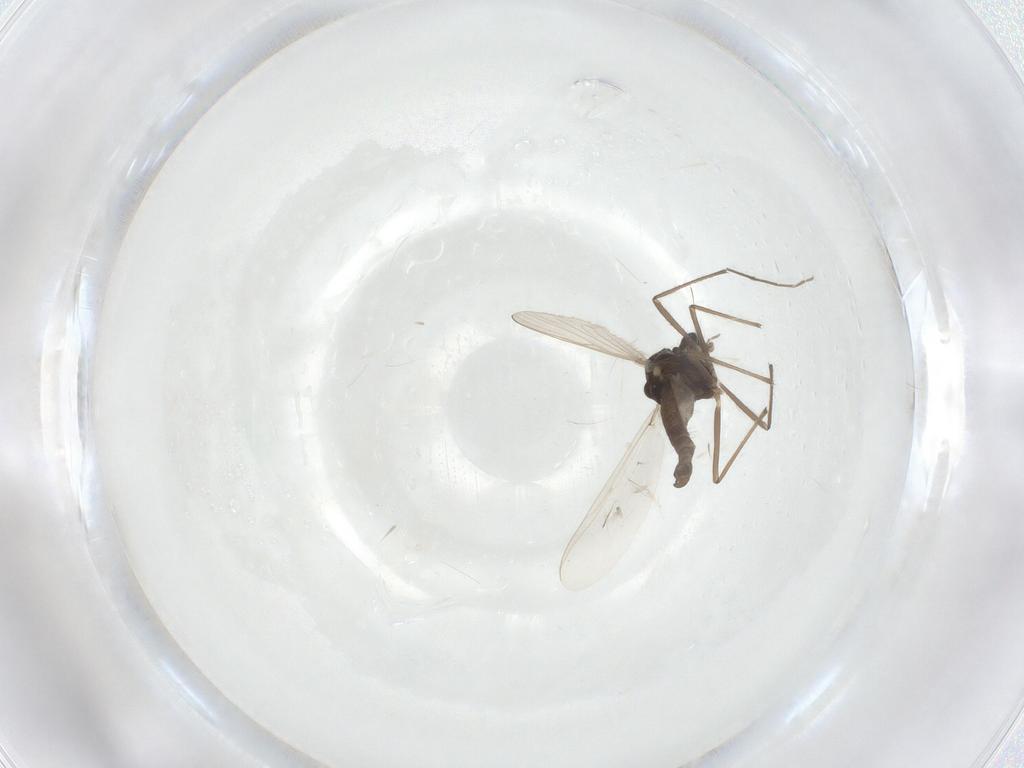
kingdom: Animalia
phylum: Arthropoda
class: Insecta
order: Diptera
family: Chironomidae
